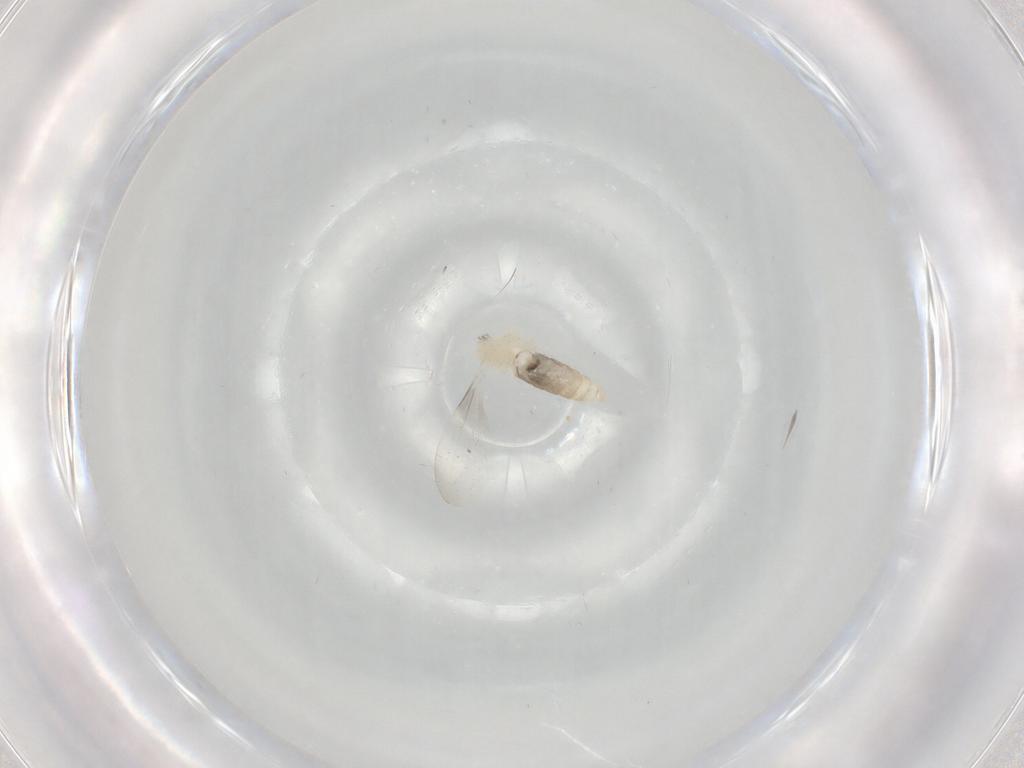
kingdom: Animalia
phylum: Arthropoda
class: Insecta
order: Diptera
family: Cecidomyiidae
